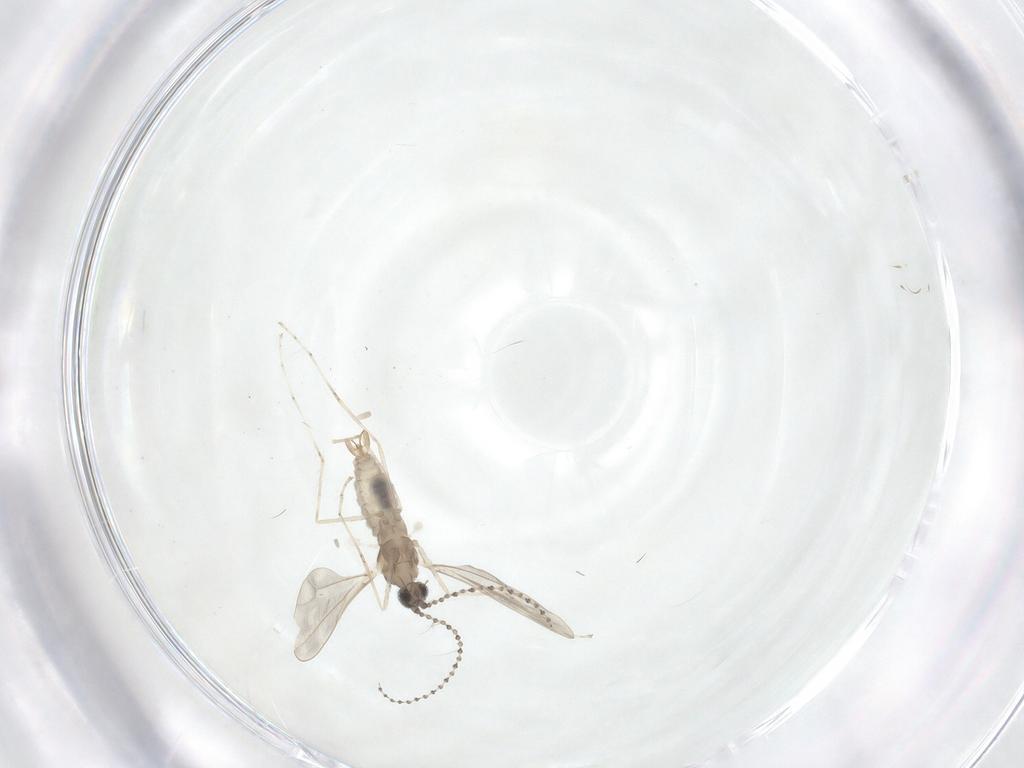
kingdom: Animalia
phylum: Arthropoda
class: Insecta
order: Diptera
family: Cecidomyiidae
